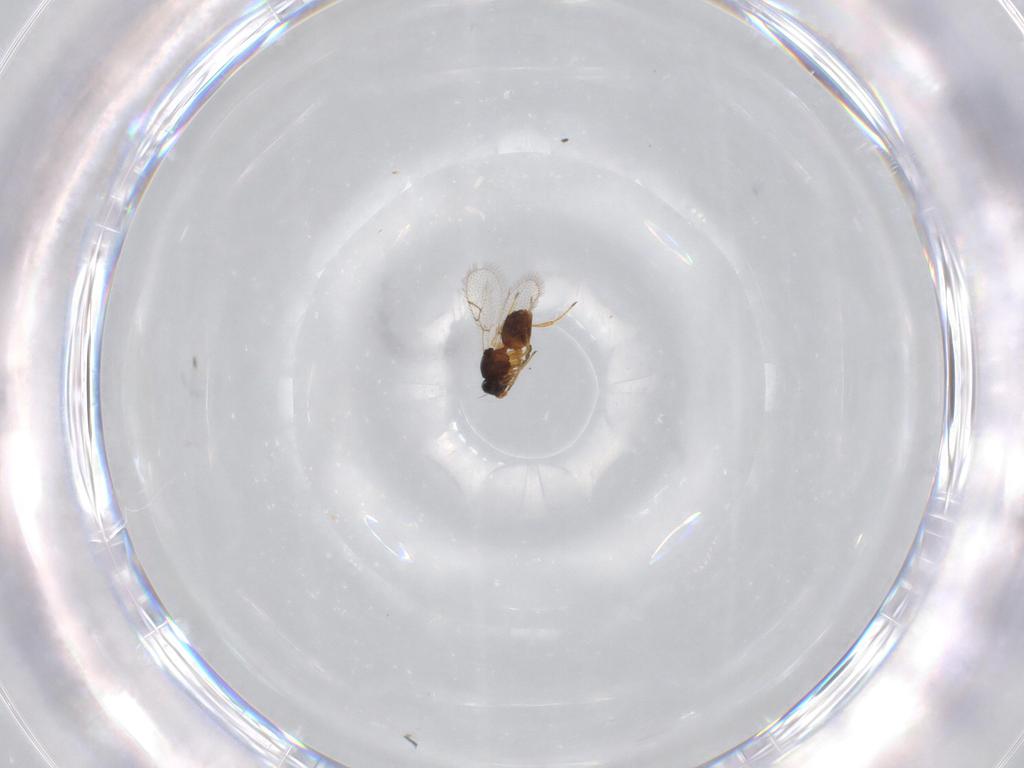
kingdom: Animalia
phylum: Arthropoda
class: Insecta
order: Hymenoptera
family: Figitidae
